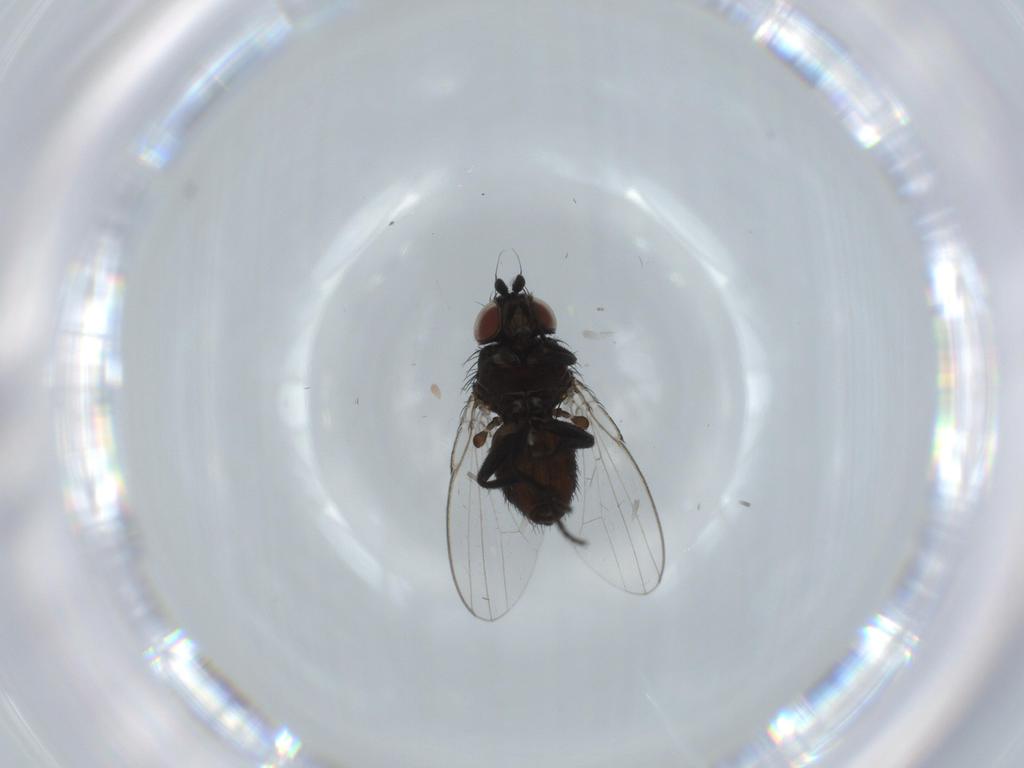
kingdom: Animalia
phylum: Arthropoda
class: Insecta
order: Diptera
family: Milichiidae
